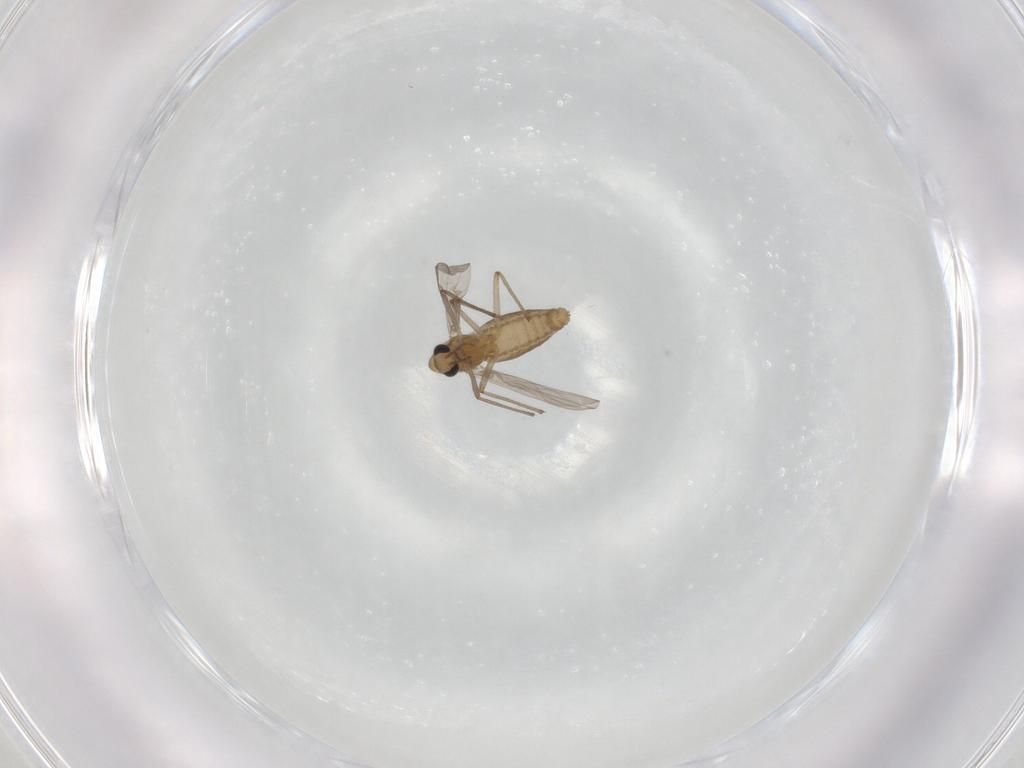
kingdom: Animalia
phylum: Arthropoda
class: Insecta
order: Diptera
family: Chironomidae
